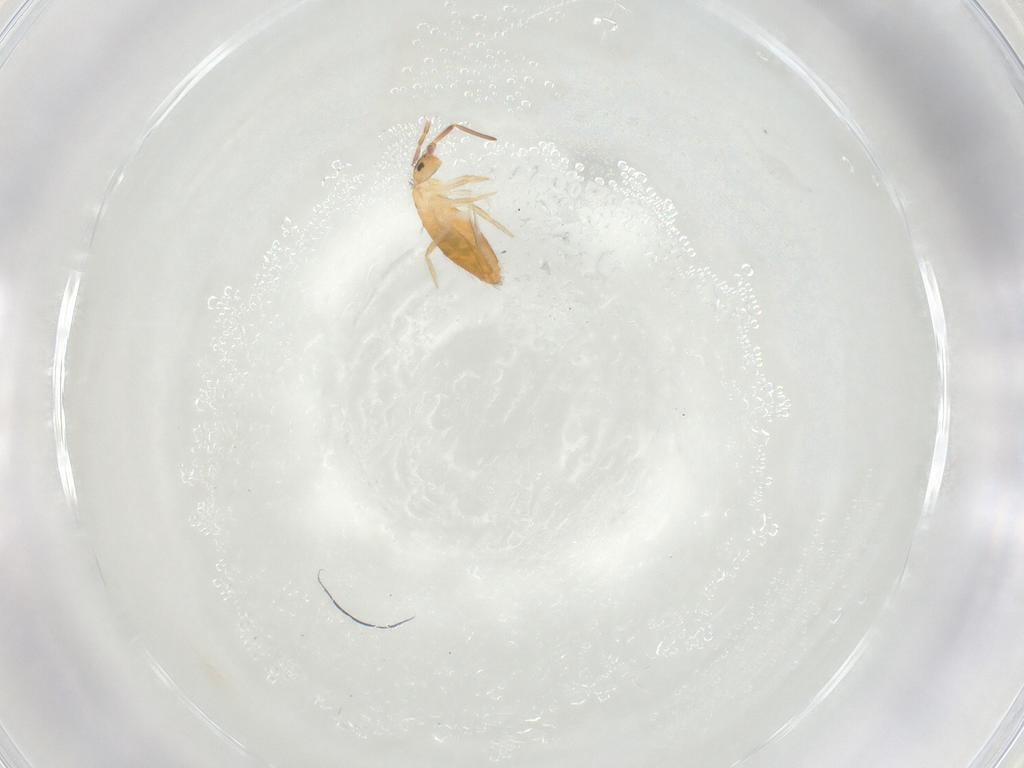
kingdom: Animalia
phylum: Arthropoda
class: Collembola
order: Entomobryomorpha
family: Entomobryidae
